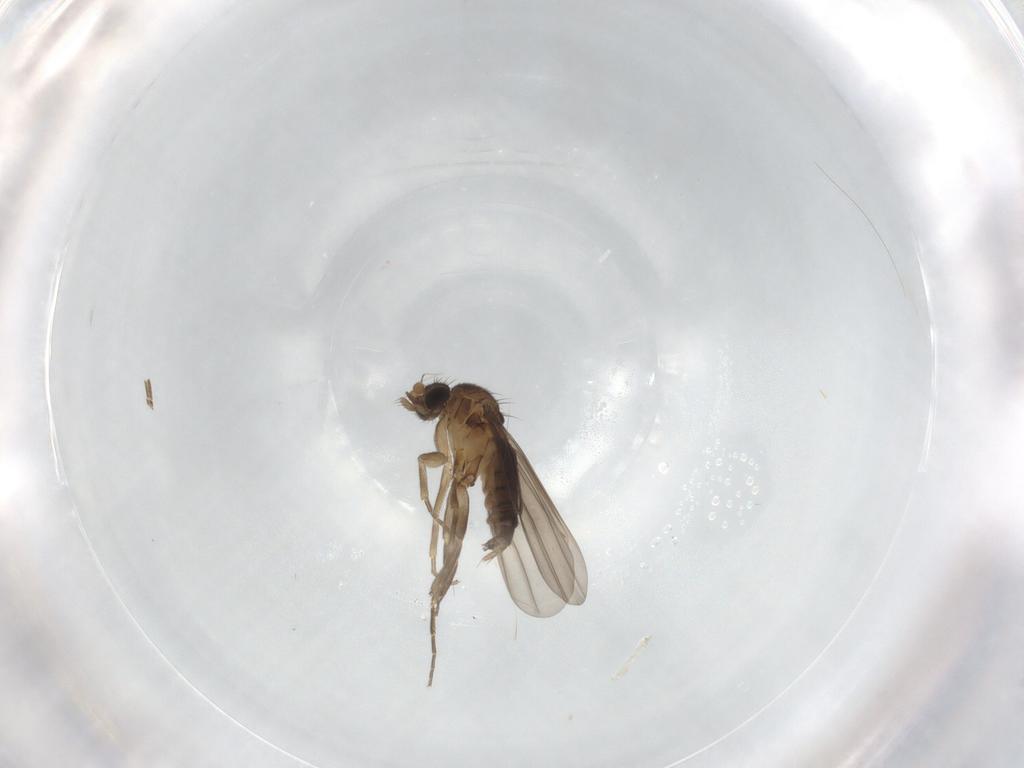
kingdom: Animalia
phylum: Arthropoda
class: Insecta
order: Diptera
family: Phoridae
